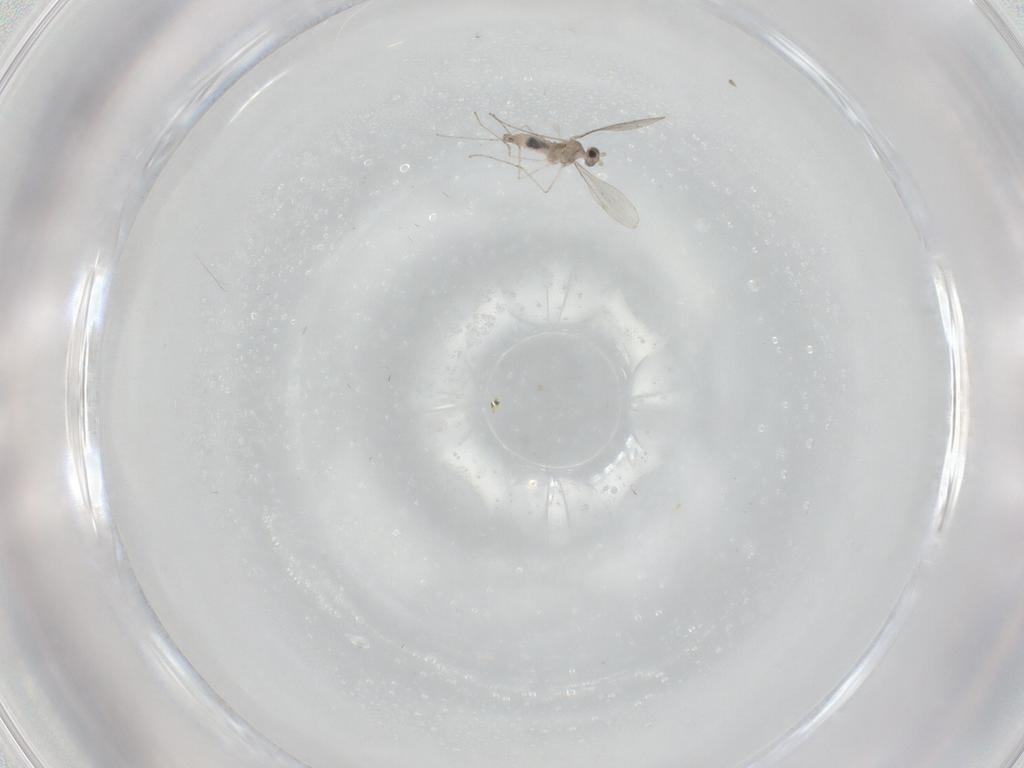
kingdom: Animalia
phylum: Arthropoda
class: Insecta
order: Diptera
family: Cecidomyiidae
